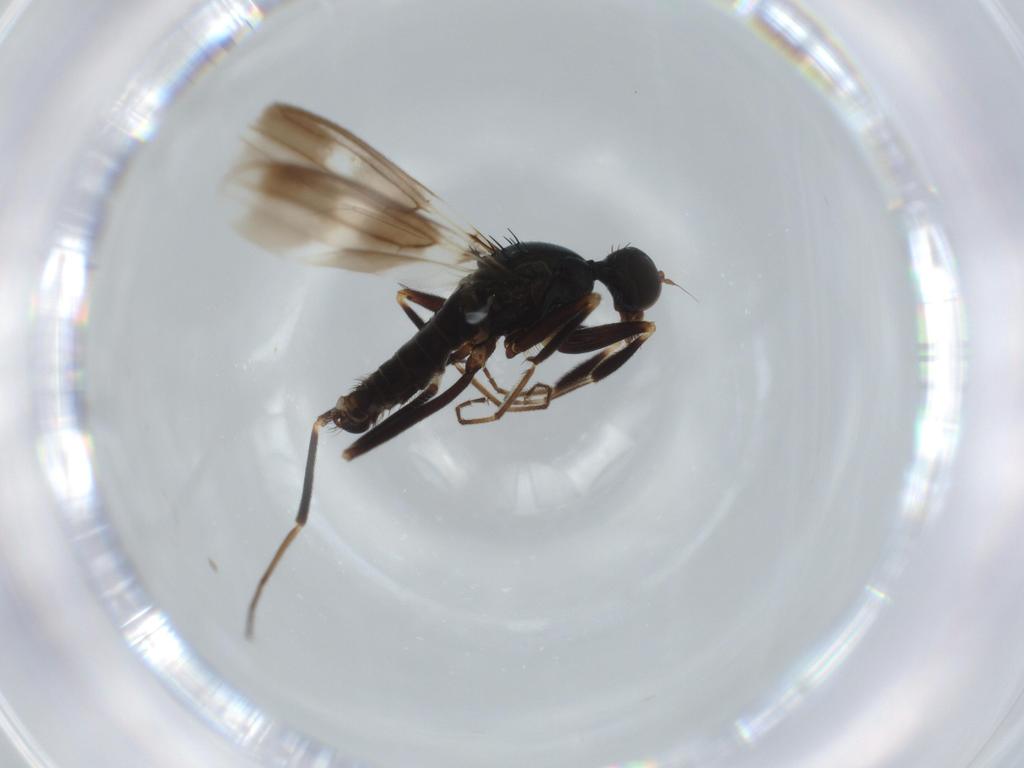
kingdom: Animalia
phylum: Arthropoda
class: Insecta
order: Diptera
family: Hybotidae
